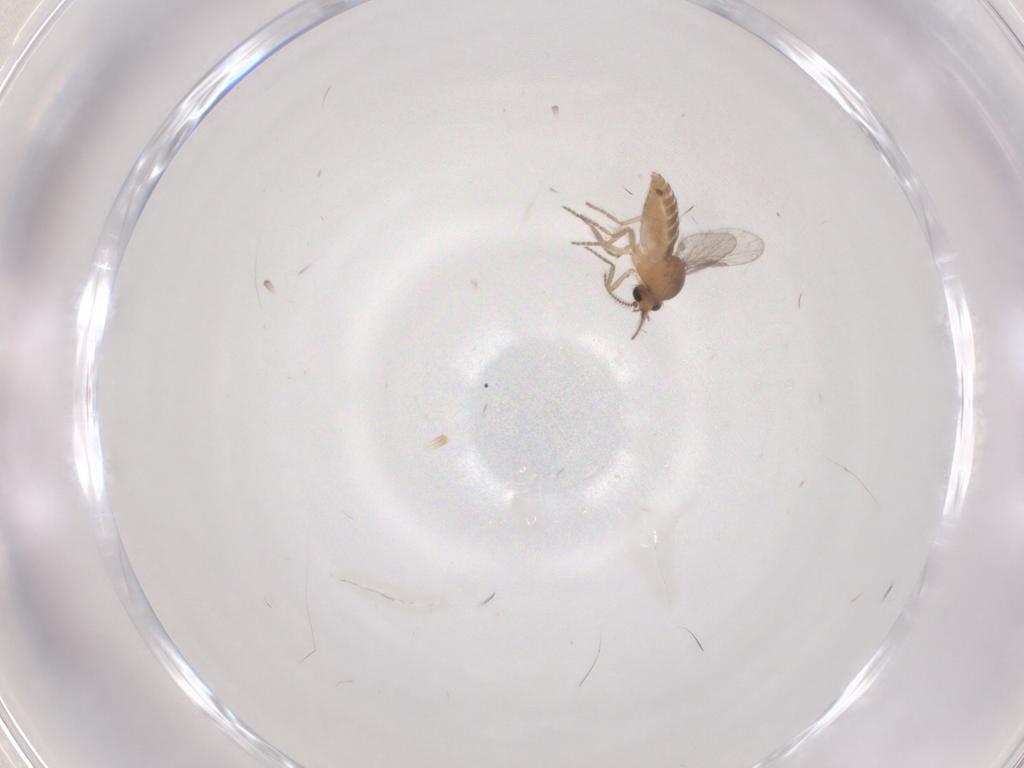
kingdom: Animalia
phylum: Arthropoda
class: Insecta
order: Diptera
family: Ceratopogonidae
